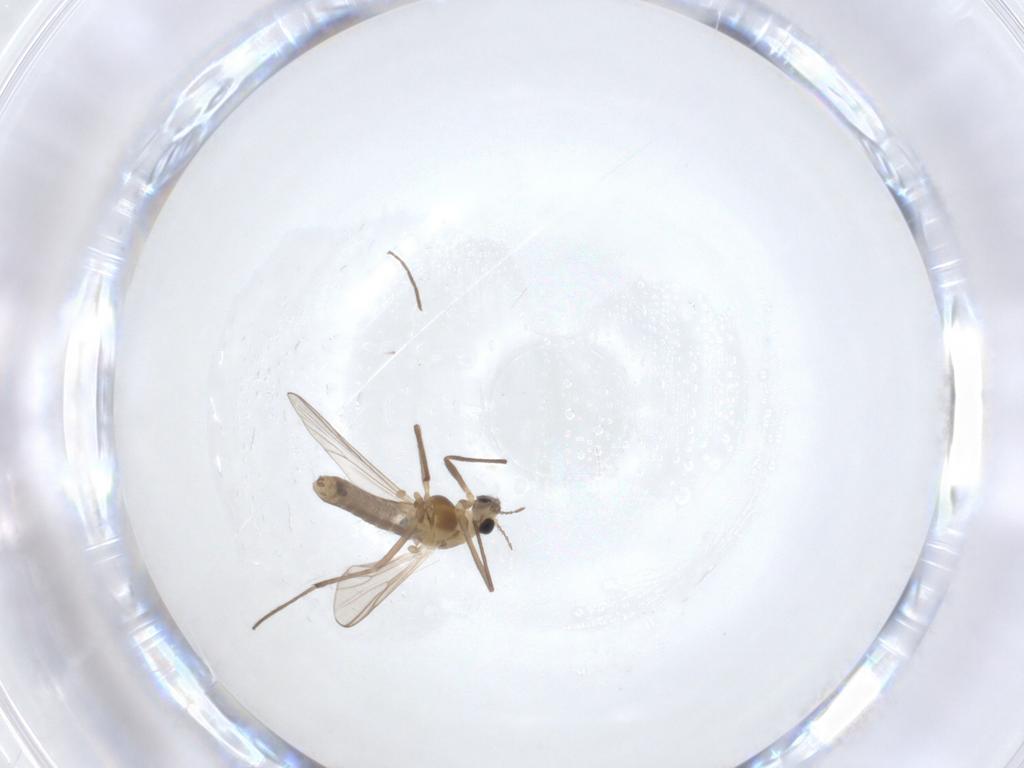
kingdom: Animalia
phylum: Arthropoda
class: Insecta
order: Diptera
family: Chironomidae
